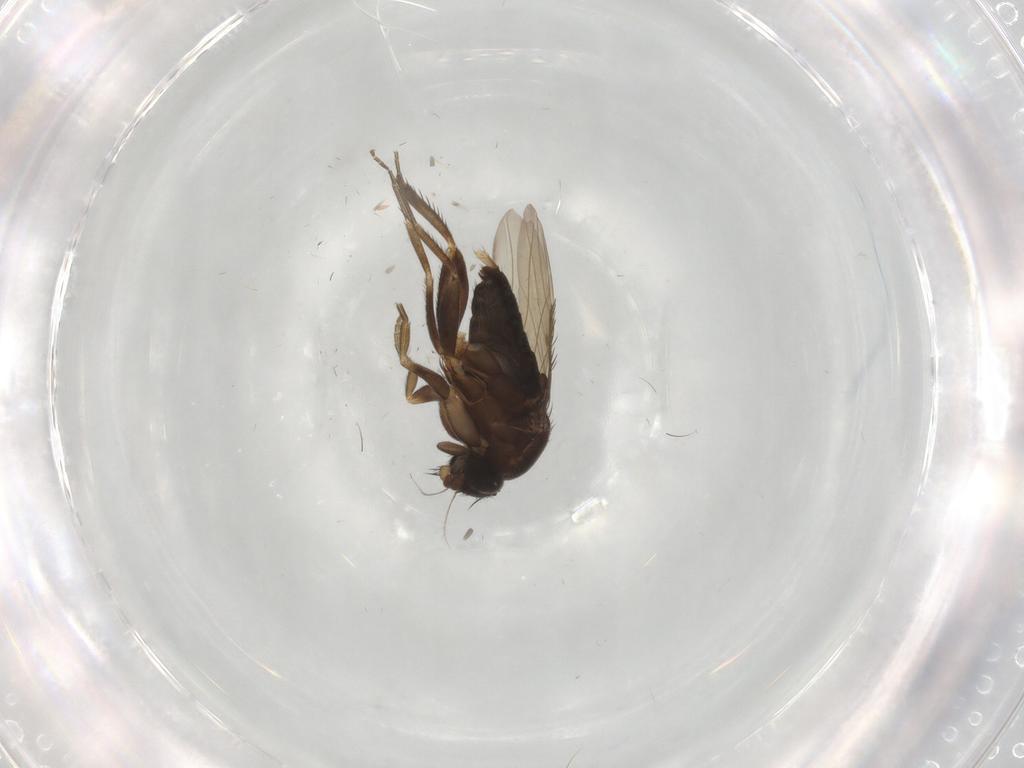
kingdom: Animalia
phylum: Arthropoda
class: Insecta
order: Diptera
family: Phoridae
